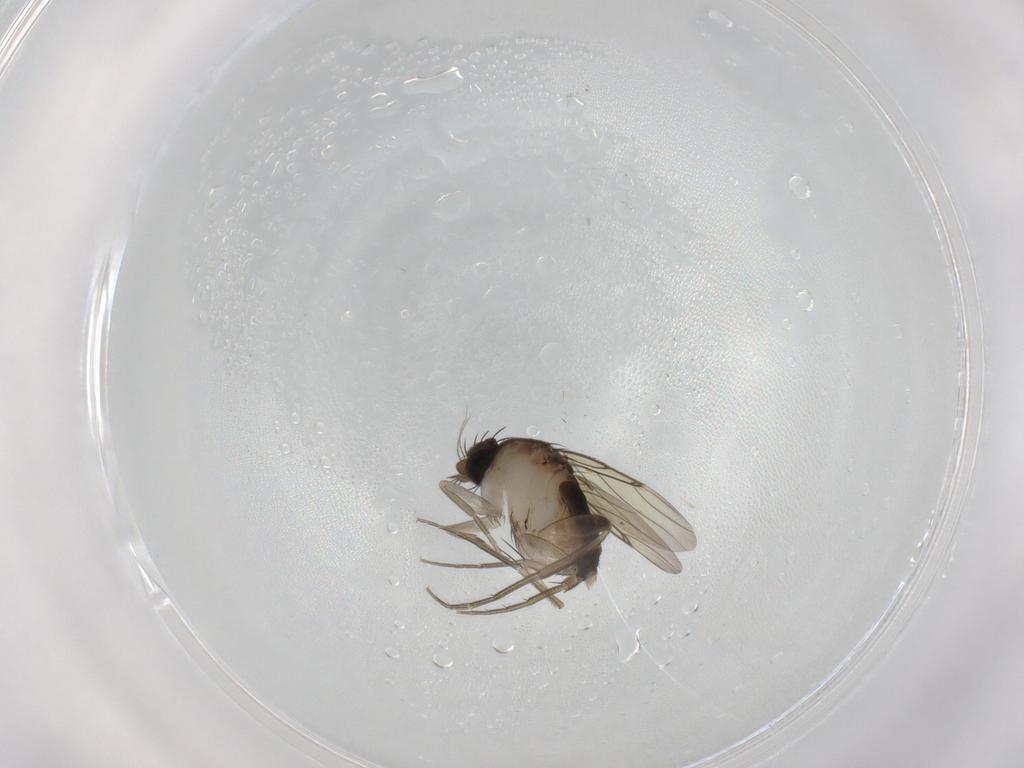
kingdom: Animalia
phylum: Arthropoda
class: Insecta
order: Diptera
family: Phoridae
